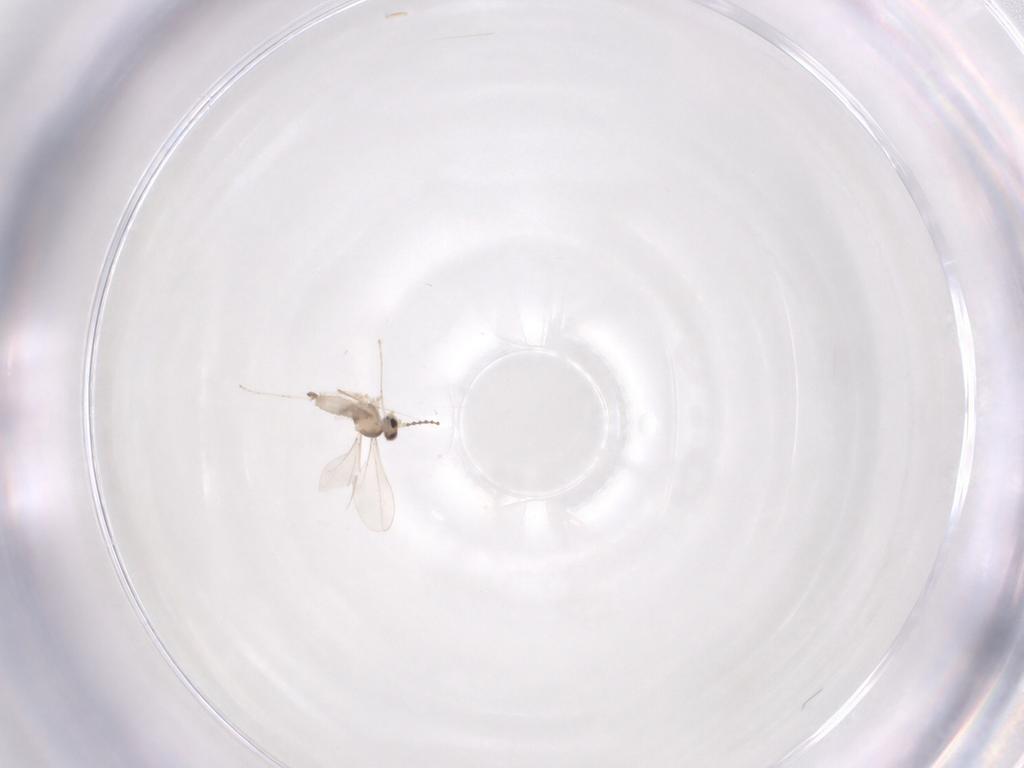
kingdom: Animalia
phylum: Arthropoda
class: Insecta
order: Diptera
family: Cecidomyiidae
